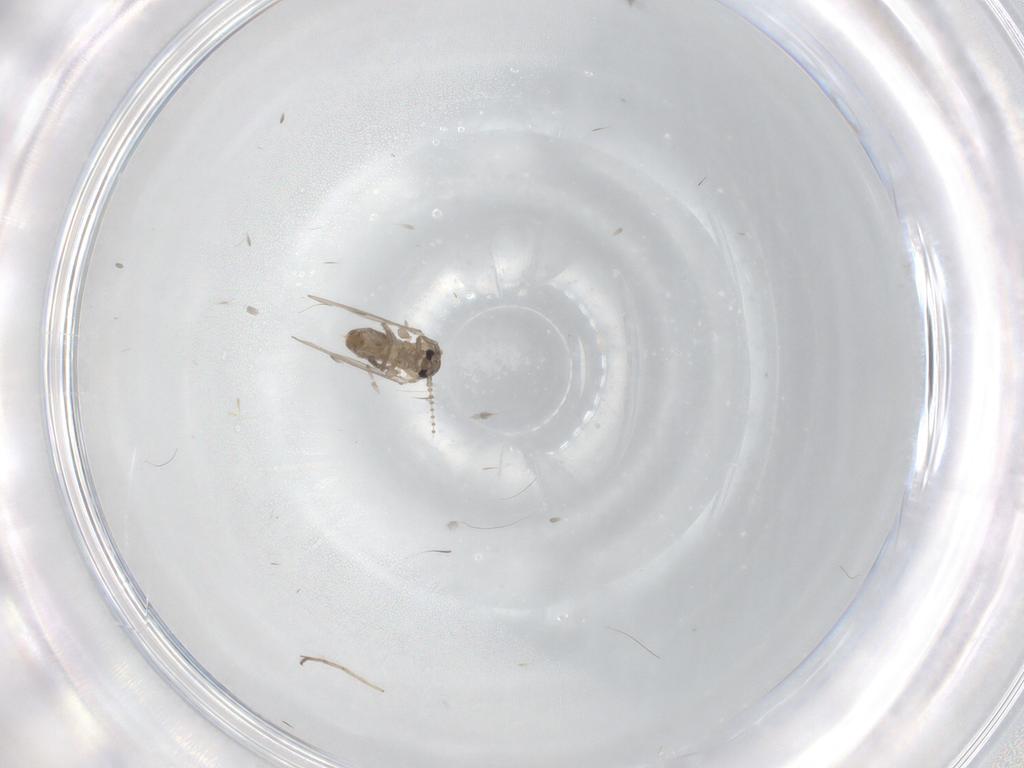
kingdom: Animalia
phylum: Arthropoda
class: Insecta
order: Diptera
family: Psychodidae
